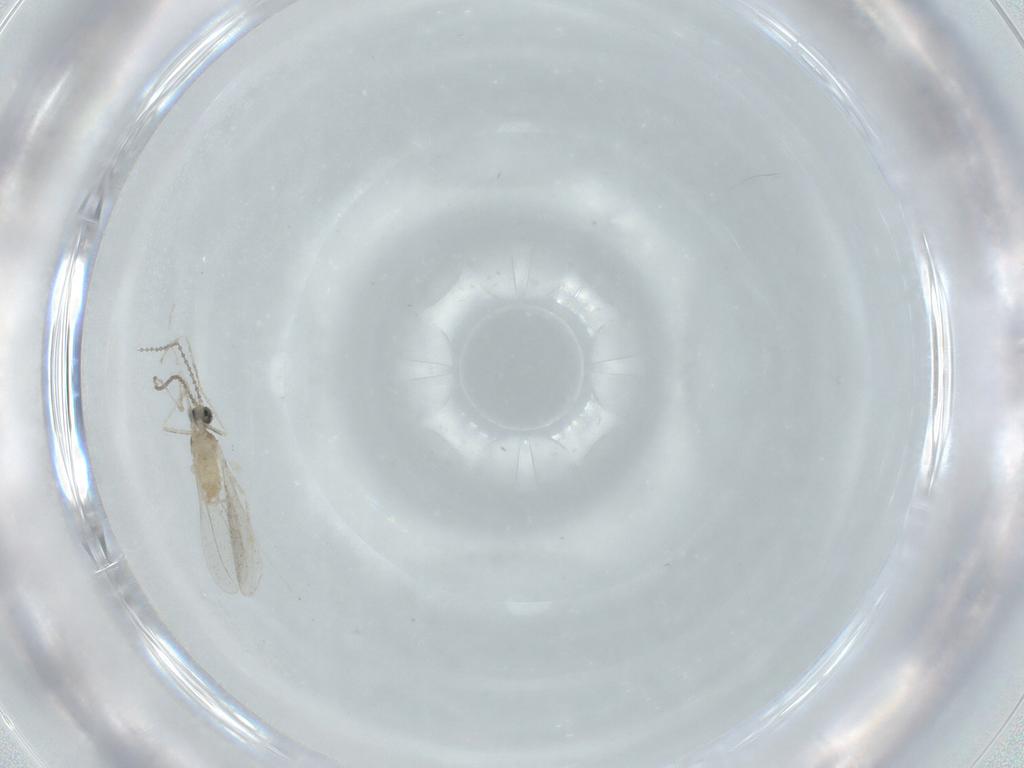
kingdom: Animalia
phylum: Arthropoda
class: Insecta
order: Diptera
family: Cecidomyiidae
